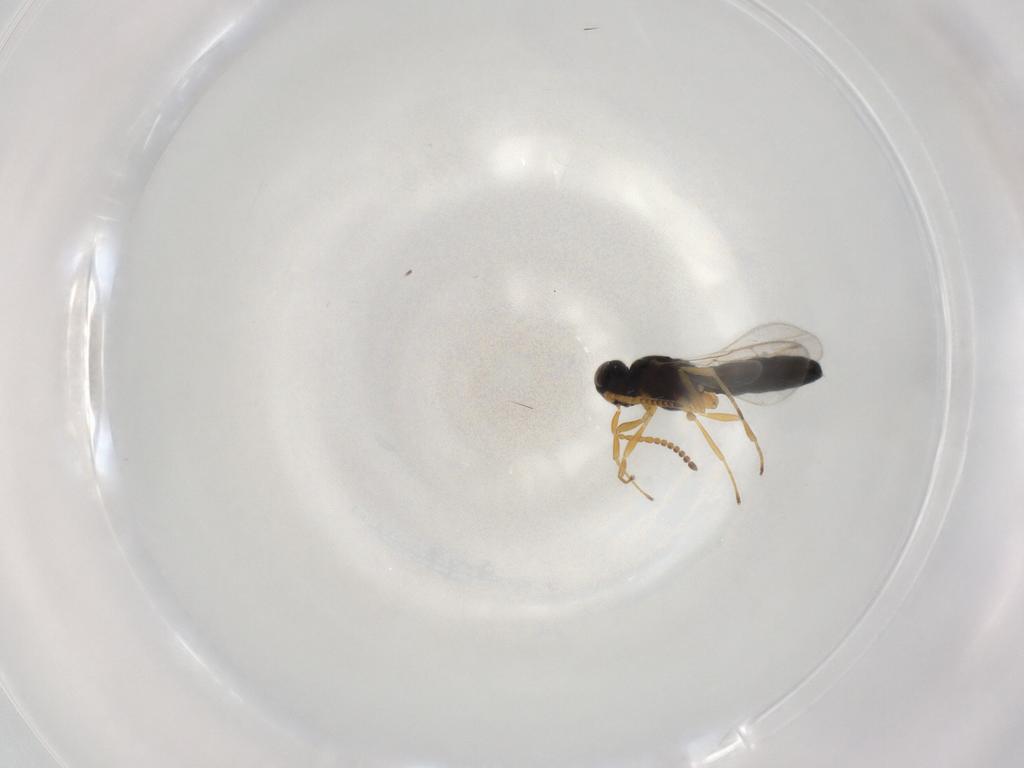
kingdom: Animalia
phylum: Arthropoda
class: Insecta
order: Hymenoptera
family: Scelionidae
